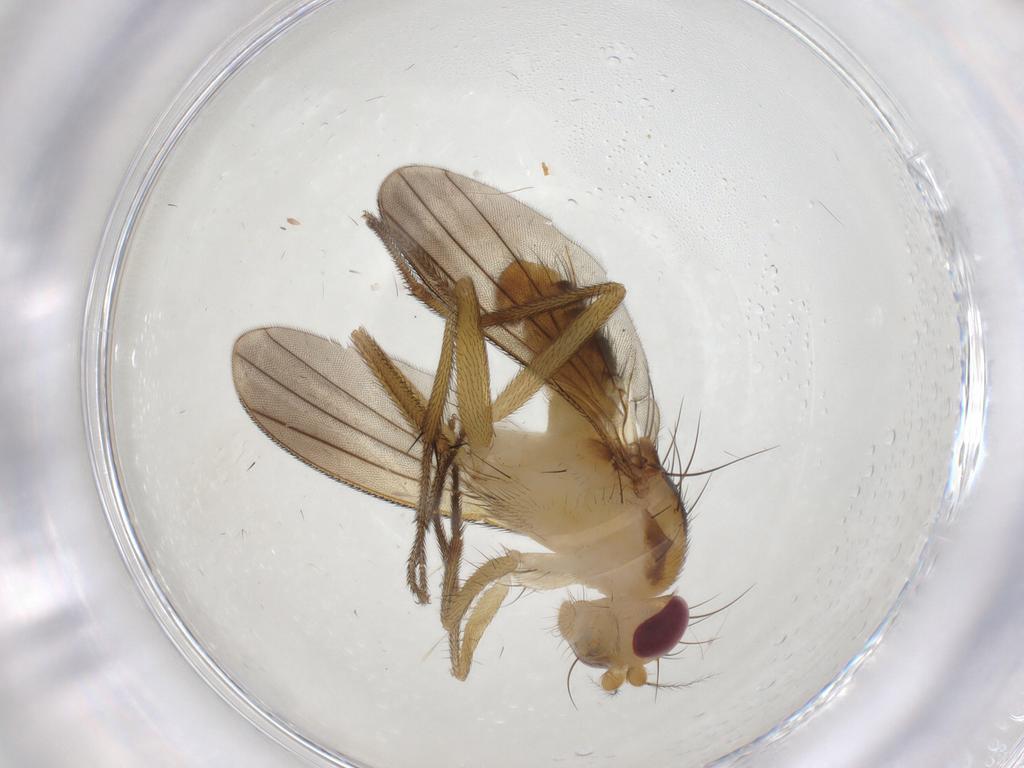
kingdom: Animalia
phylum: Arthropoda
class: Insecta
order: Diptera
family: Clusiidae
